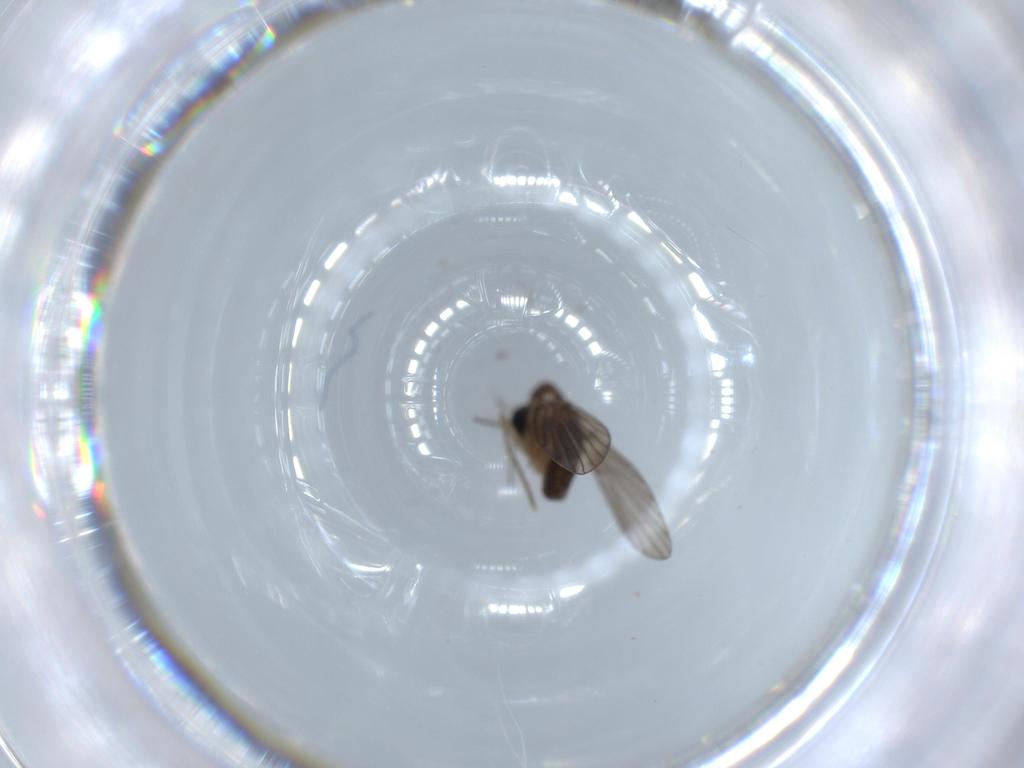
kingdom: Animalia
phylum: Arthropoda
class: Insecta
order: Diptera
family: Psychodidae
